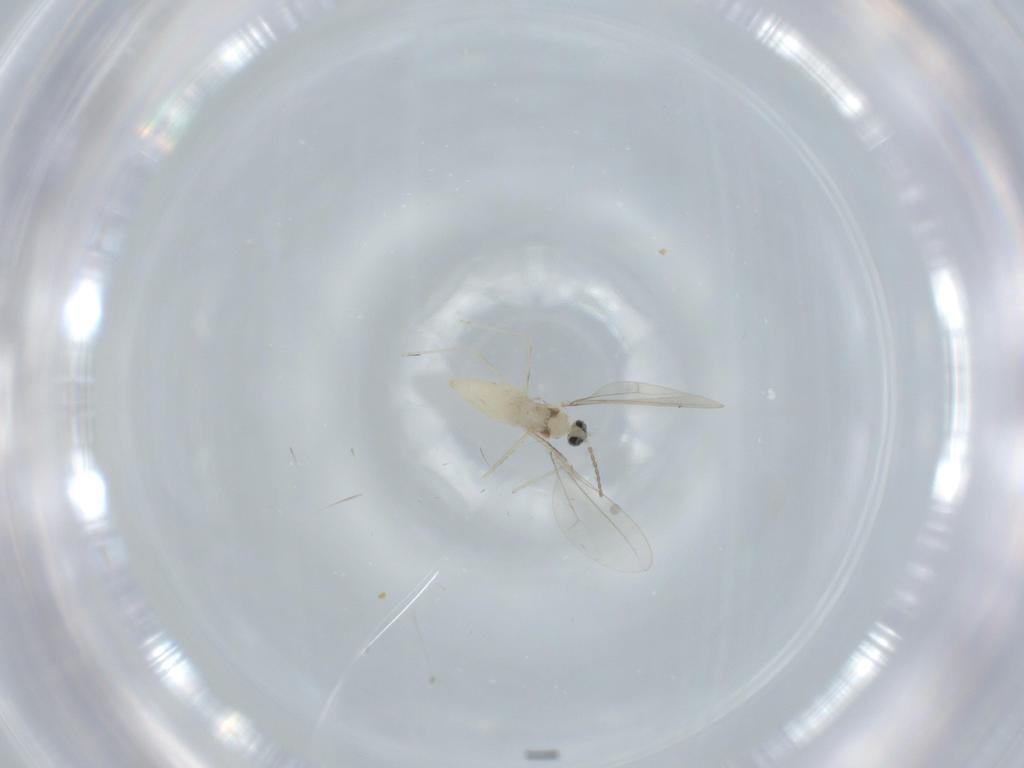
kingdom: Animalia
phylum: Arthropoda
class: Insecta
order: Diptera
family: Cecidomyiidae
